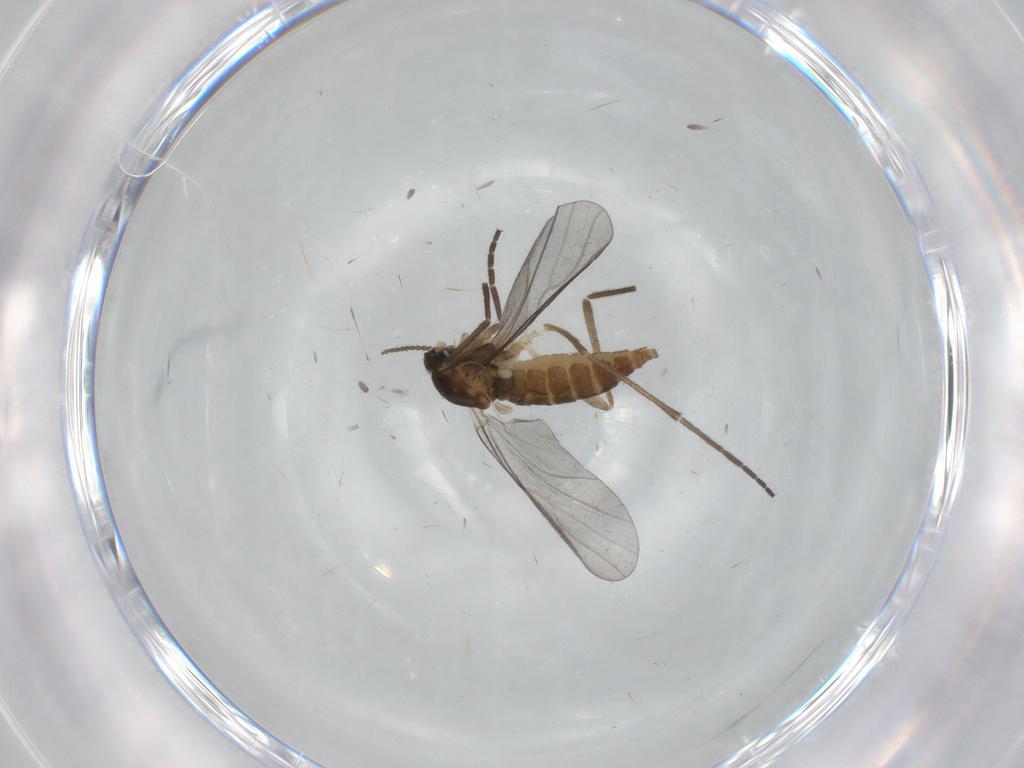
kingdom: Animalia
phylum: Arthropoda
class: Insecta
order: Diptera
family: Cecidomyiidae
